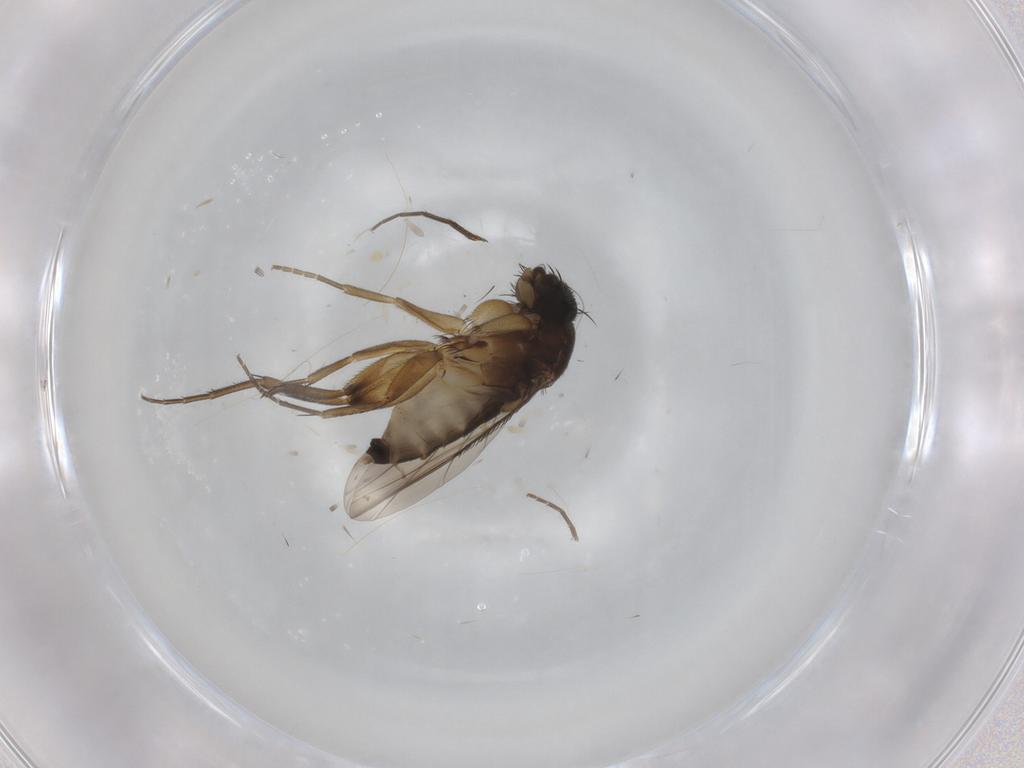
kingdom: Animalia
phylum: Arthropoda
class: Insecta
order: Diptera
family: Phoridae
